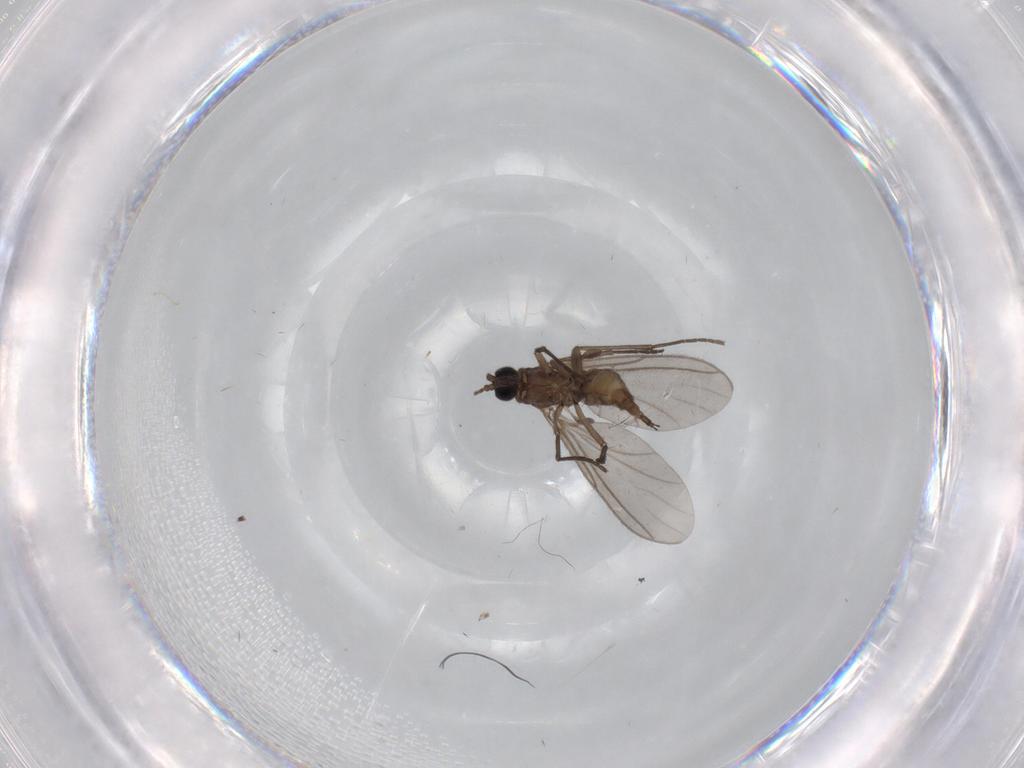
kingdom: Animalia
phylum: Arthropoda
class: Insecta
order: Diptera
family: Sciaridae
